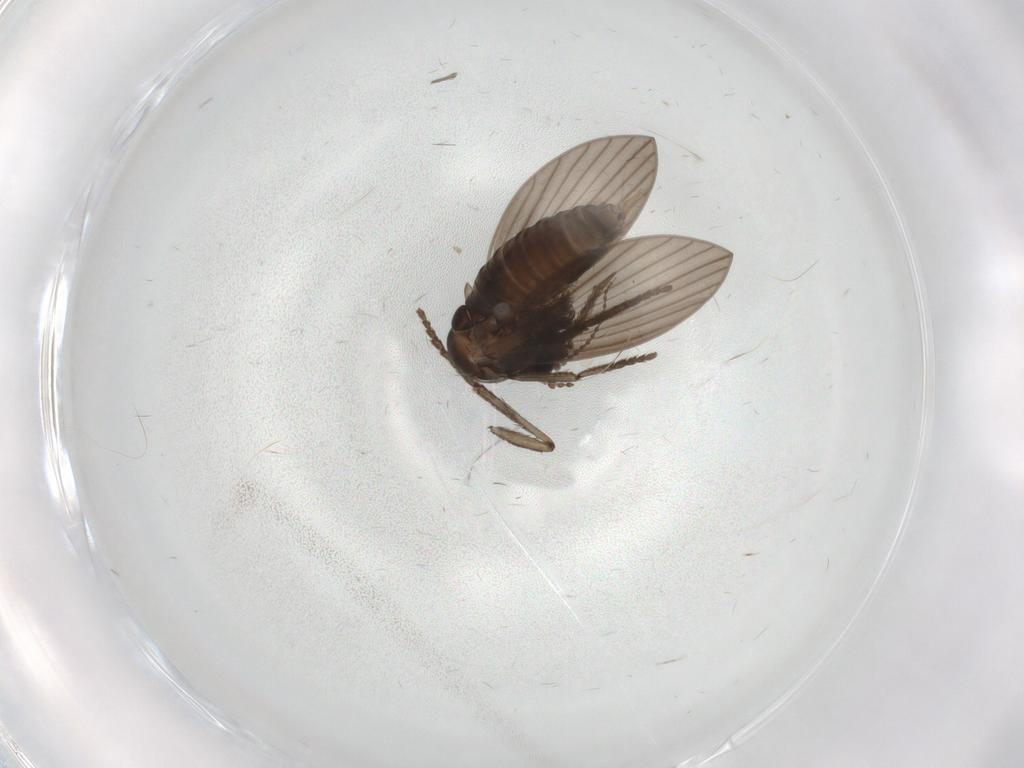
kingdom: Animalia
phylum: Arthropoda
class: Insecta
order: Diptera
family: Psychodidae
